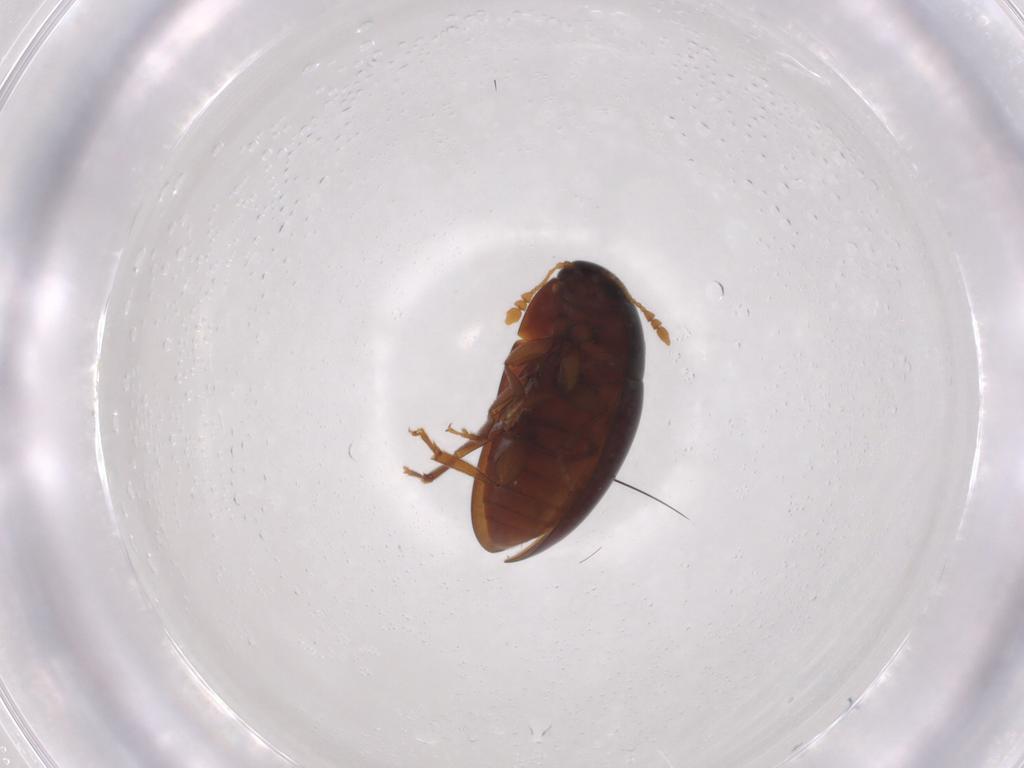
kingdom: Animalia
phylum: Arthropoda
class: Insecta
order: Coleoptera
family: Phalacridae
